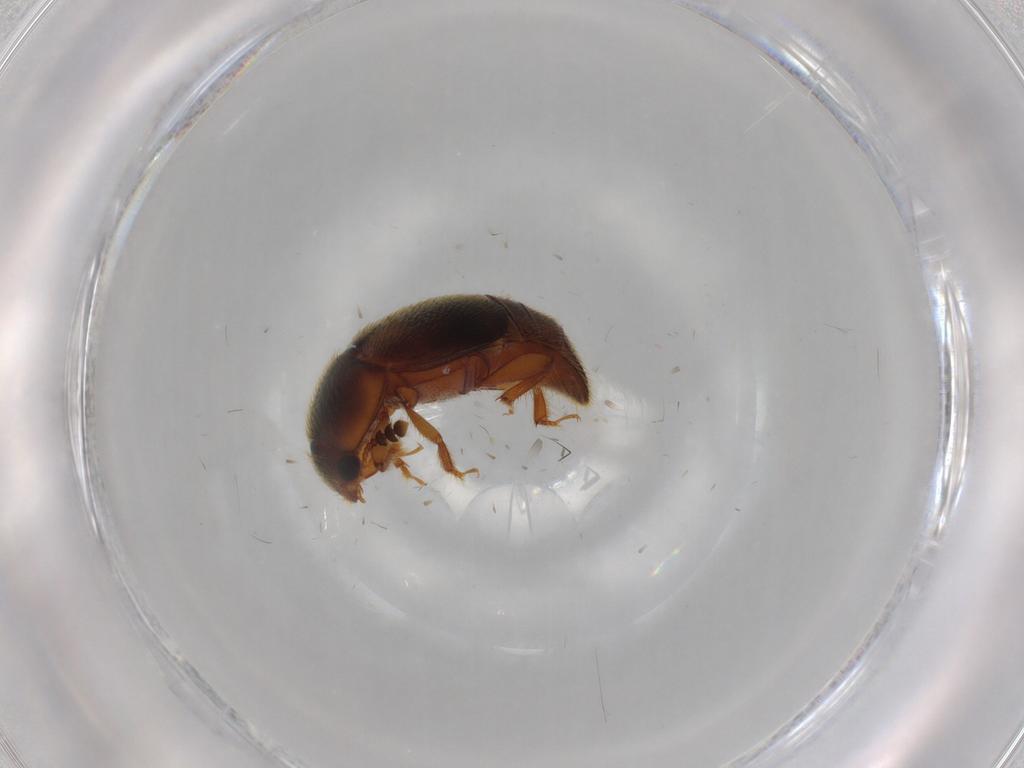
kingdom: Animalia
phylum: Arthropoda
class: Insecta
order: Coleoptera
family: Nitidulidae
